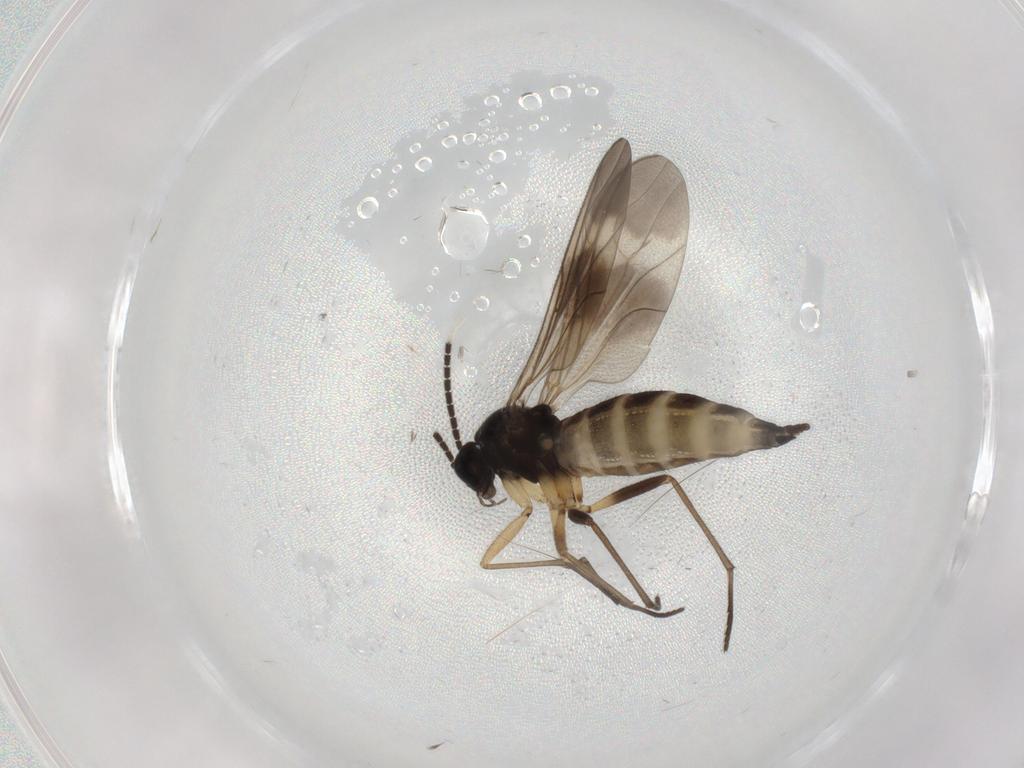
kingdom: Animalia
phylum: Arthropoda
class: Insecta
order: Diptera
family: Sciaridae
